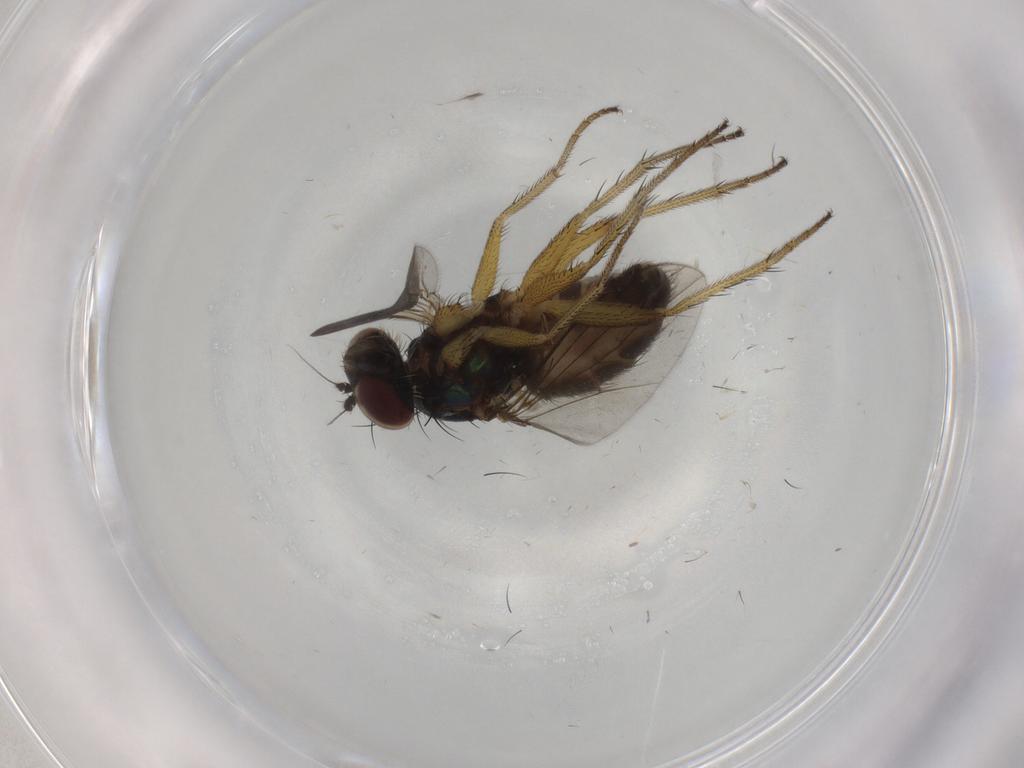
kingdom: Animalia
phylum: Arthropoda
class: Insecta
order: Diptera
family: Dolichopodidae
